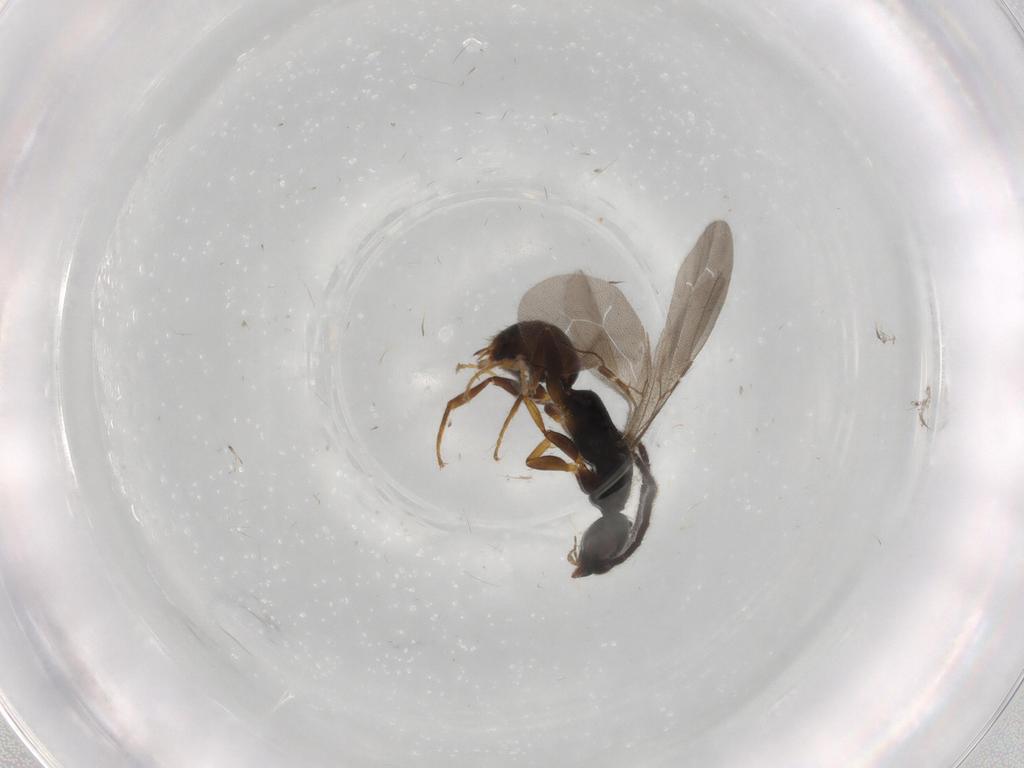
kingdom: Animalia
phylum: Arthropoda
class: Insecta
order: Hymenoptera
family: Bethylidae
